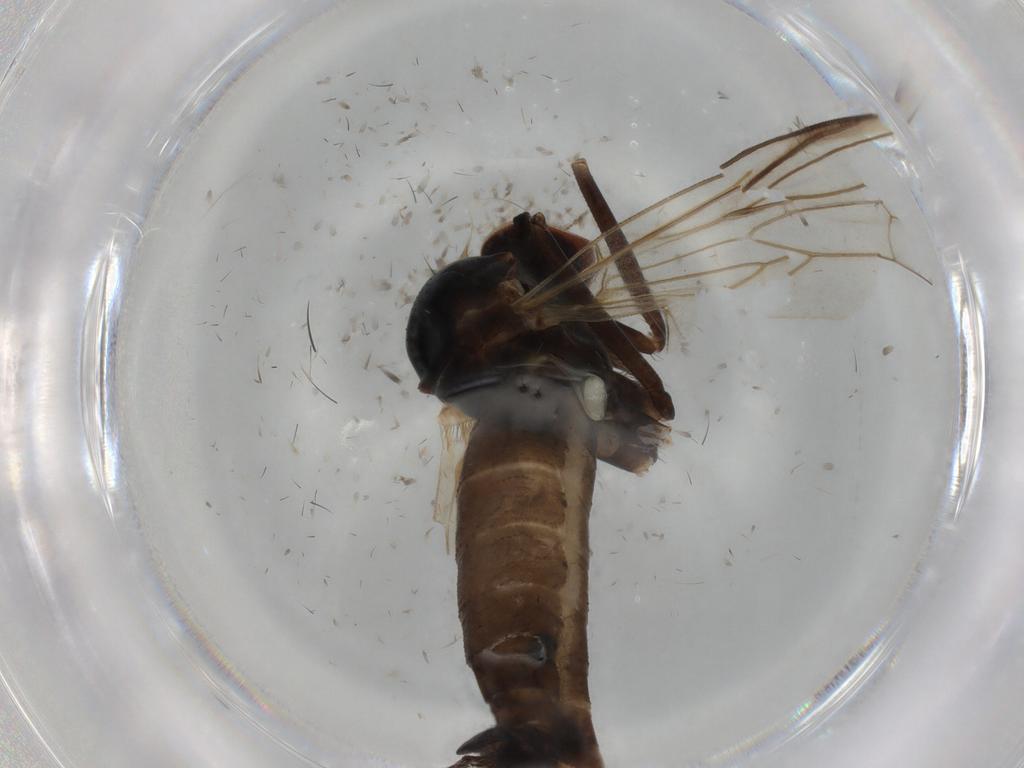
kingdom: Animalia
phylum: Arthropoda
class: Insecta
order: Diptera
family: Empididae
